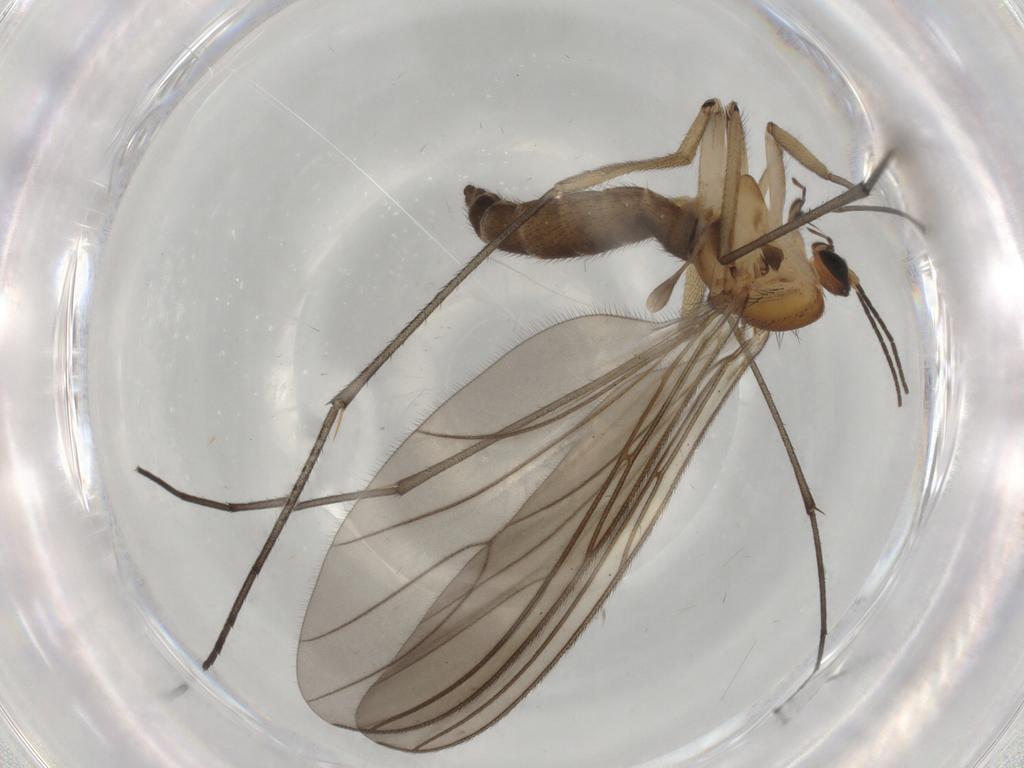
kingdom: Animalia
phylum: Arthropoda
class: Insecta
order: Diptera
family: Sciaridae
